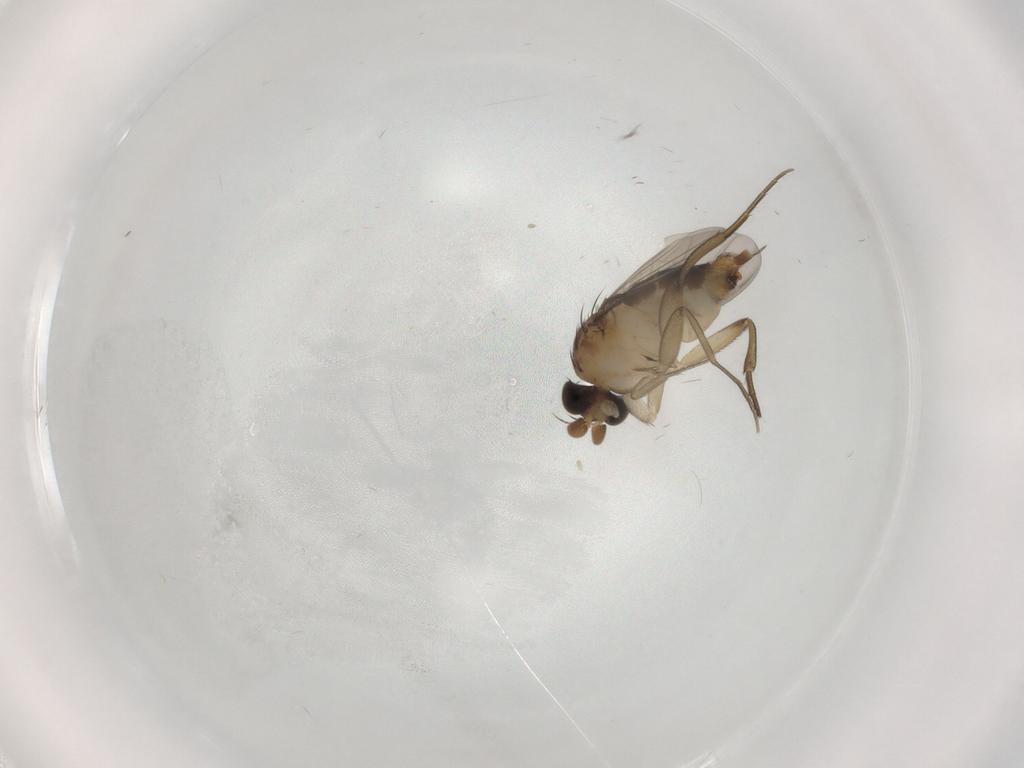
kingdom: Animalia
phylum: Arthropoda
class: Insecta
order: Diptera
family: Phoridae
